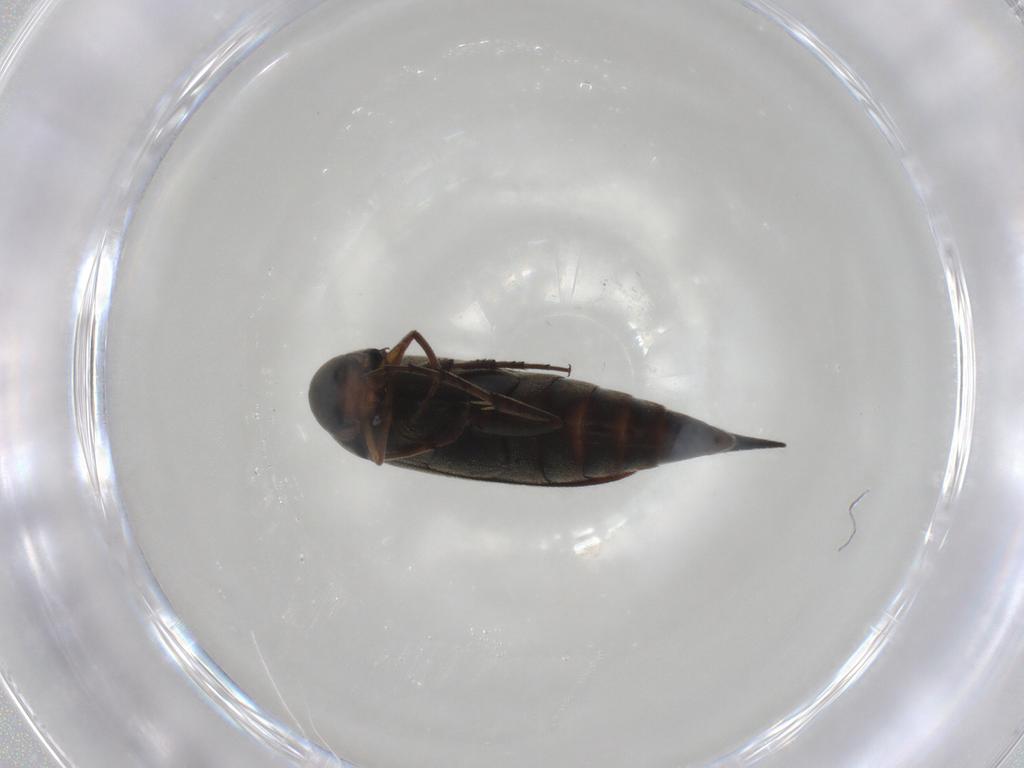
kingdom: Animalia
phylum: Arthropoda
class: Insecta
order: Coleoptera
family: Mordellidae
